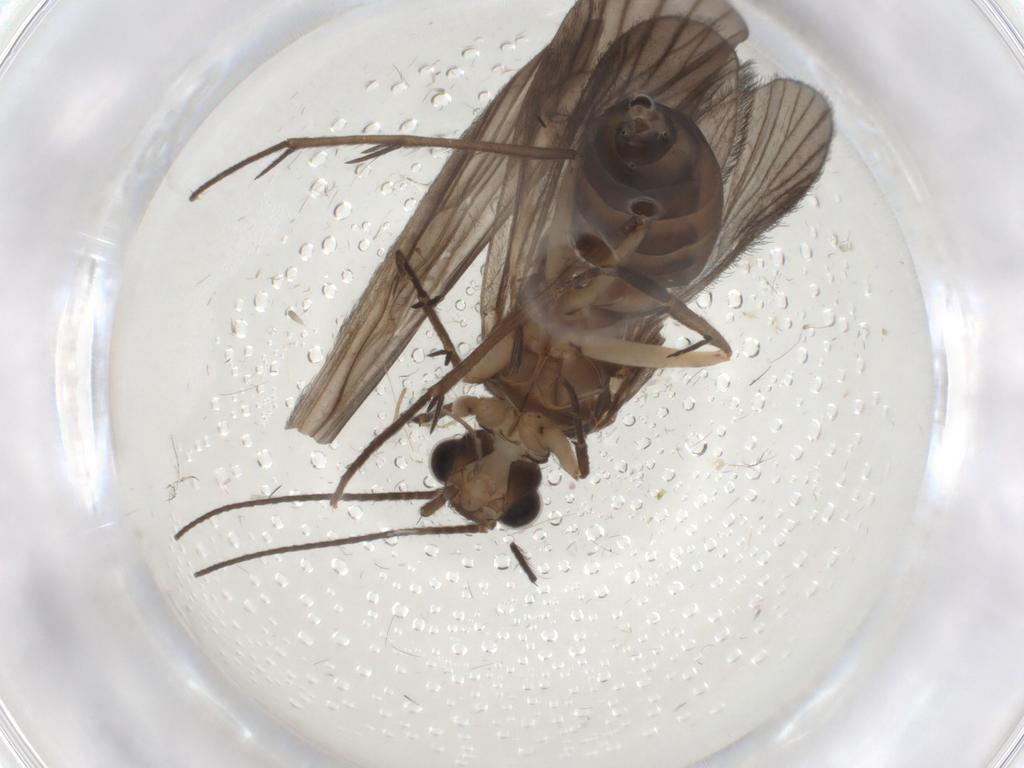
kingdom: Animalia
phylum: Arthropoda
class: Insecta
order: Trichoptera
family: Philopotamidae
